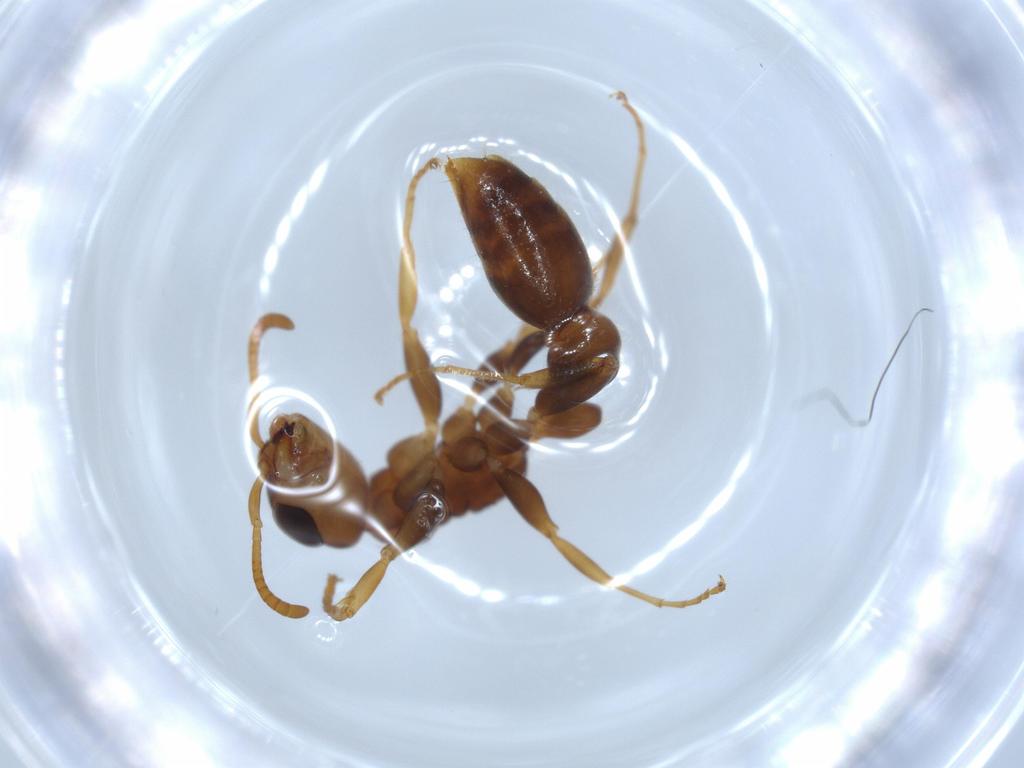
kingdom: Animalia
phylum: Arthropoda
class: Insecta
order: Hymenoptera
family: Formicidae
